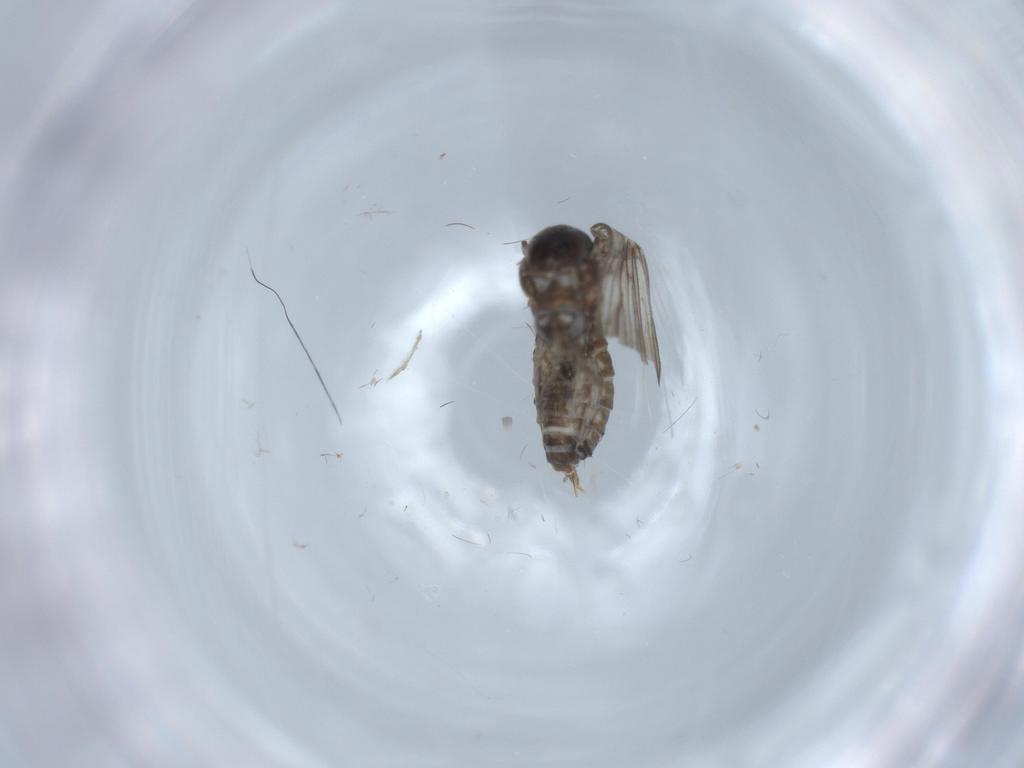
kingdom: Animalia
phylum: Arthropoda
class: Insecta
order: Diptera
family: Psychodidae
